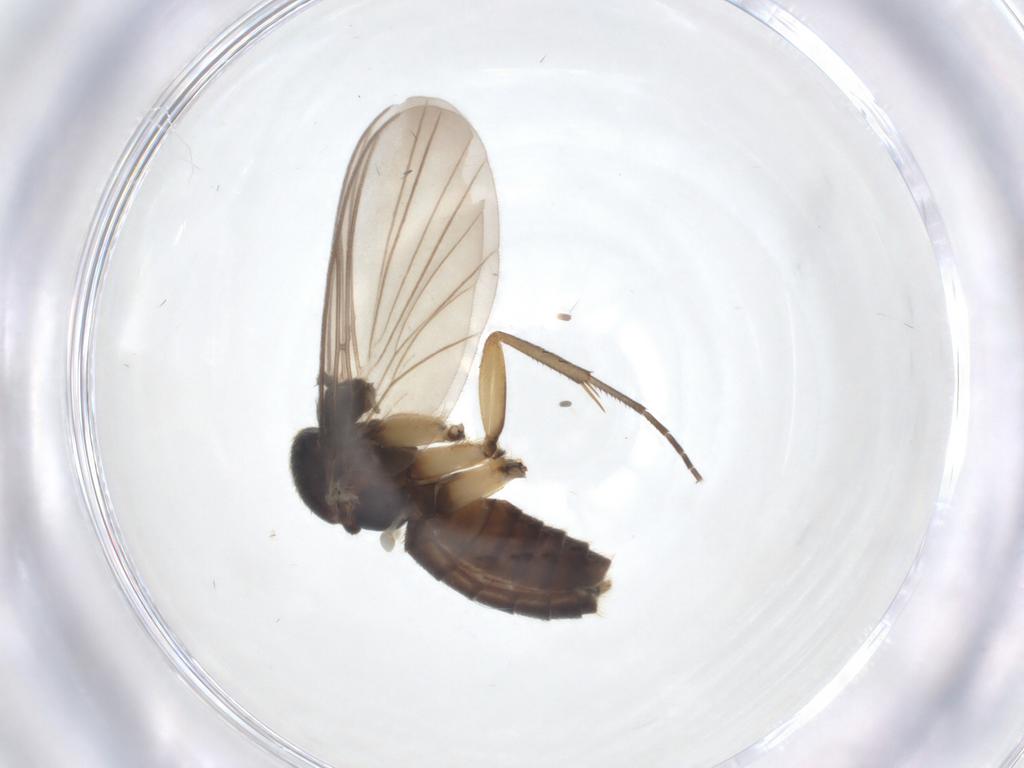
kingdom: Animalia
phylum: Arthropoda
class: Insecta
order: Diptera
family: Mycetophilidae
